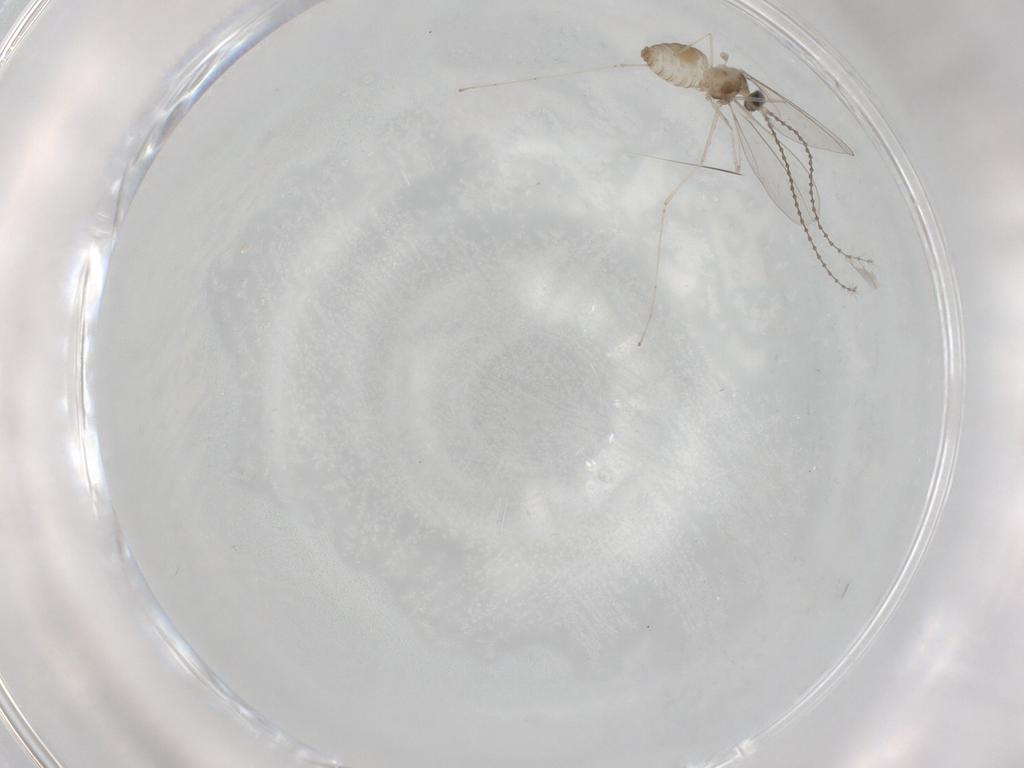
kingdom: Animalia
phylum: Arthropoda
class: Insecta
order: Diptera
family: Cecidomyiidae
